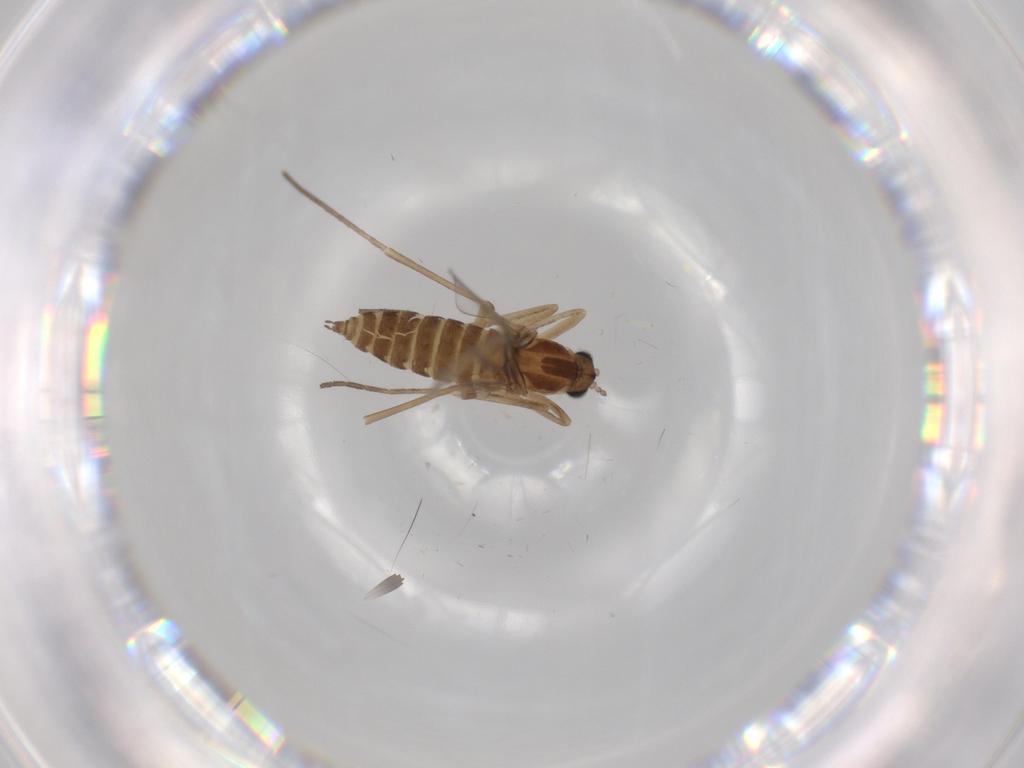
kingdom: Animalia
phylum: Arthropoda
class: Insecta
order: Diptera
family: Cecidomyiidae
